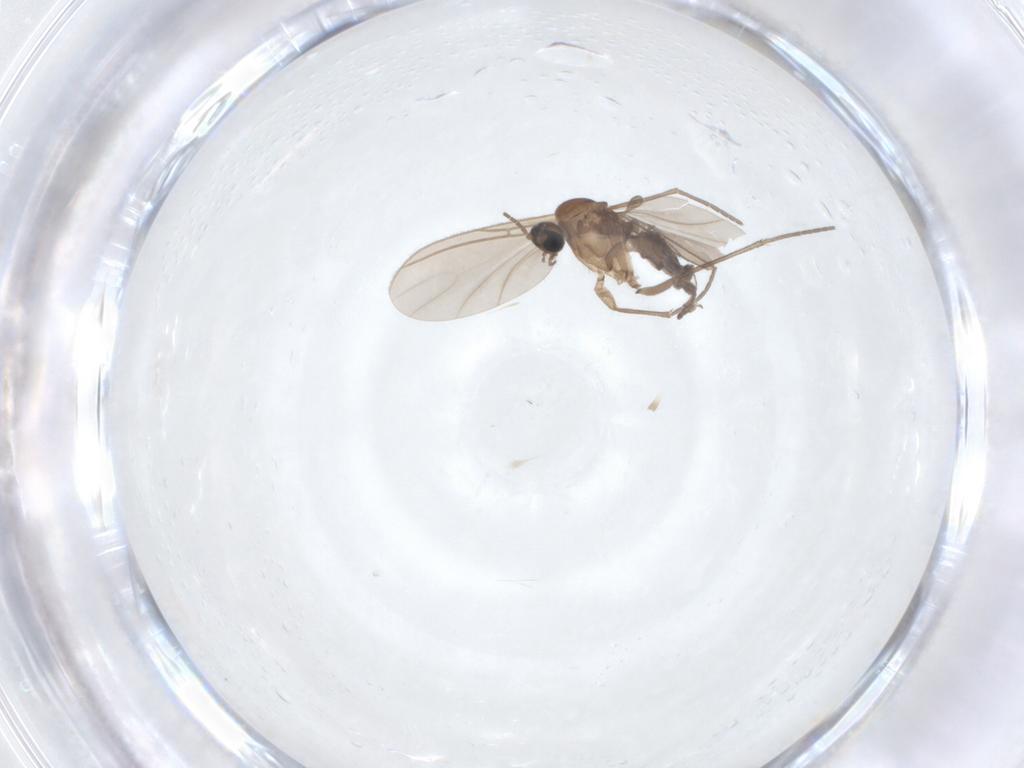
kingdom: Animalia
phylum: Arthropoda
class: Insecta
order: Diptera
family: Sciaridae
